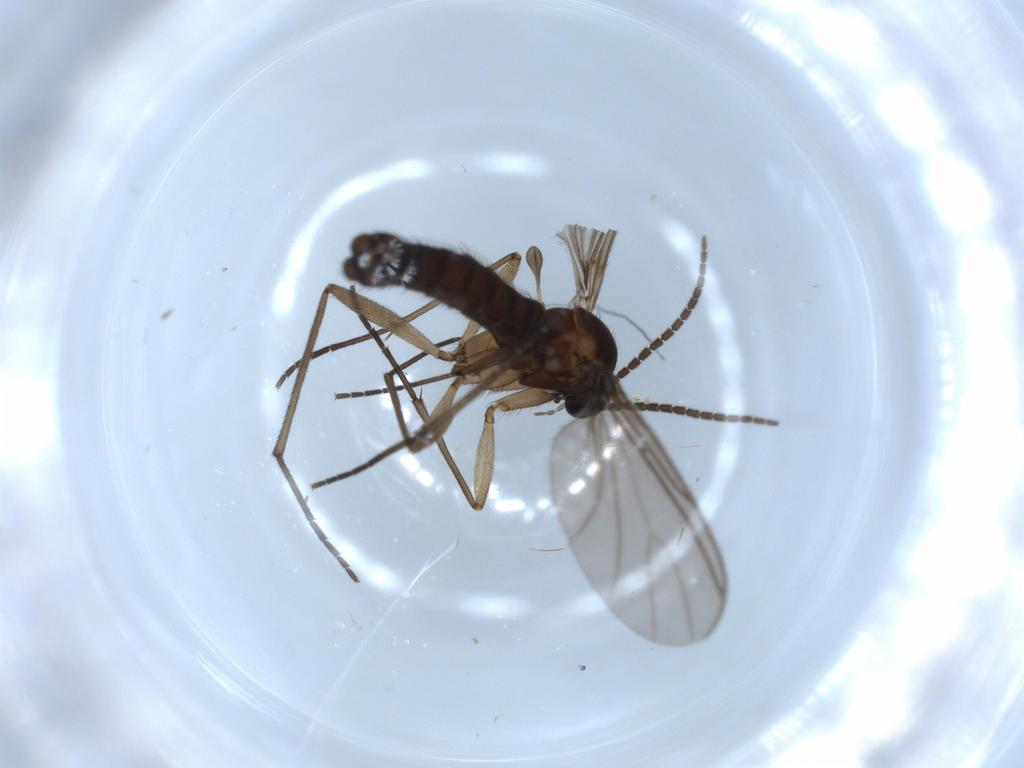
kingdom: Animalia
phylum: Arthropoda
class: Insecta
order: Diptera
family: Sciaridae
